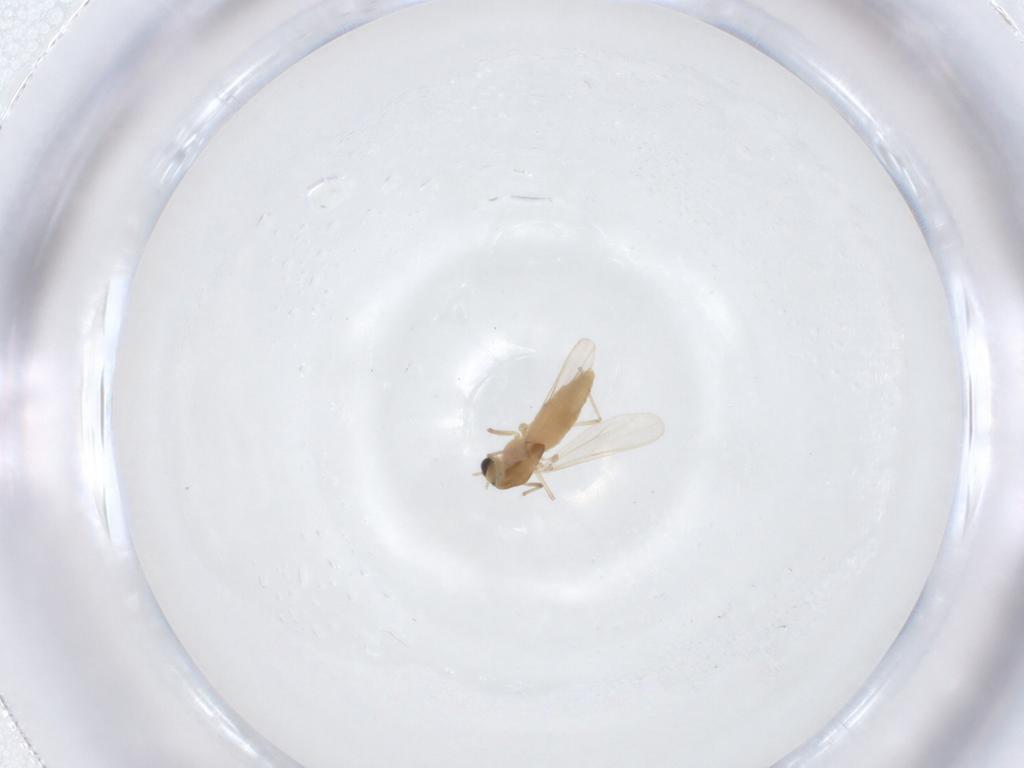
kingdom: Animalia
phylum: Arthropoda
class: Insecta
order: Diptera
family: Chironomidae
